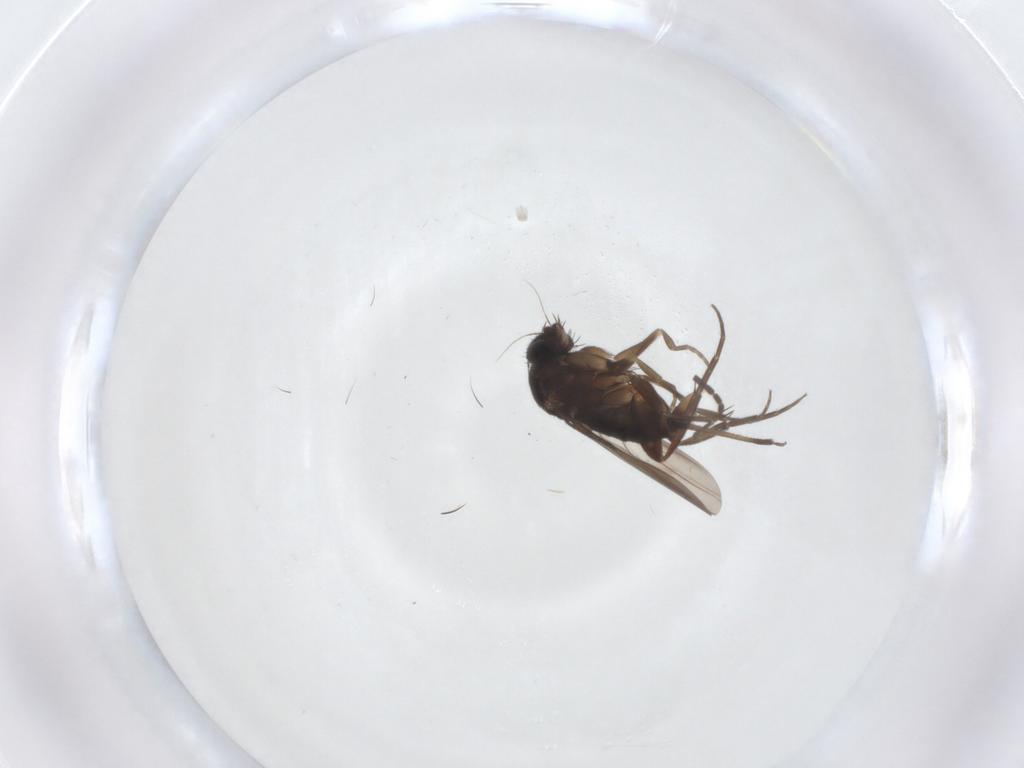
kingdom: Animalia
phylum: Arthropoda
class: Insecta
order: Diptera
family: Sciaridae
